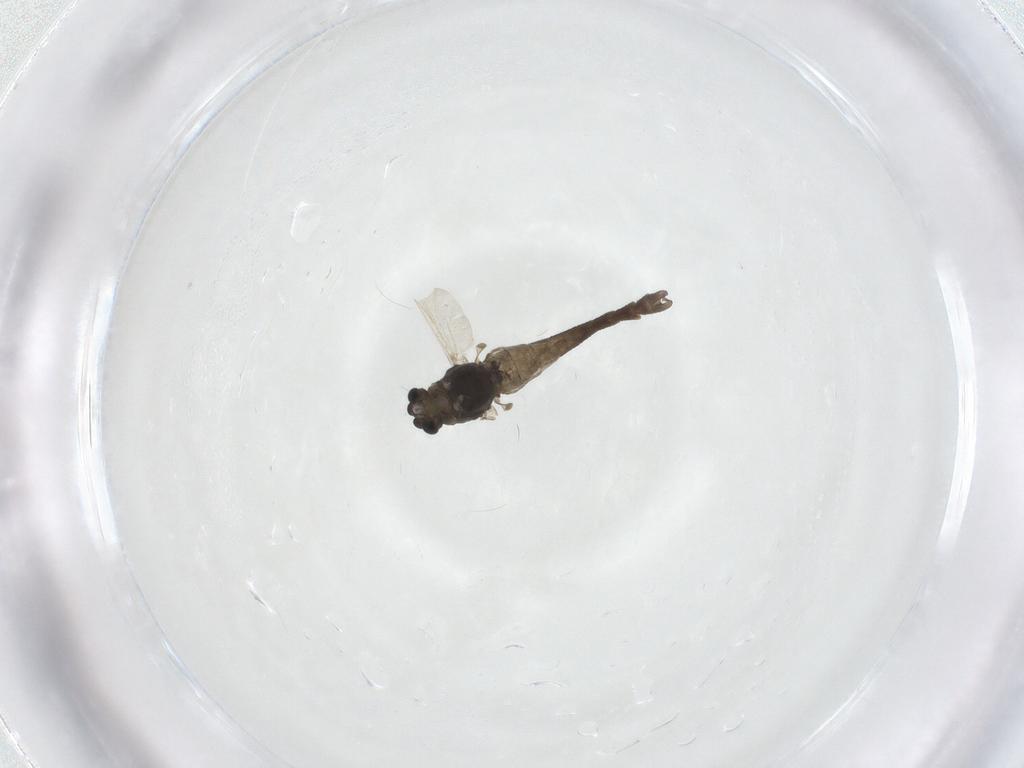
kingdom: Animalia
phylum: Arthropoda
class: Insecta
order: Diptera
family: Chironomidae
